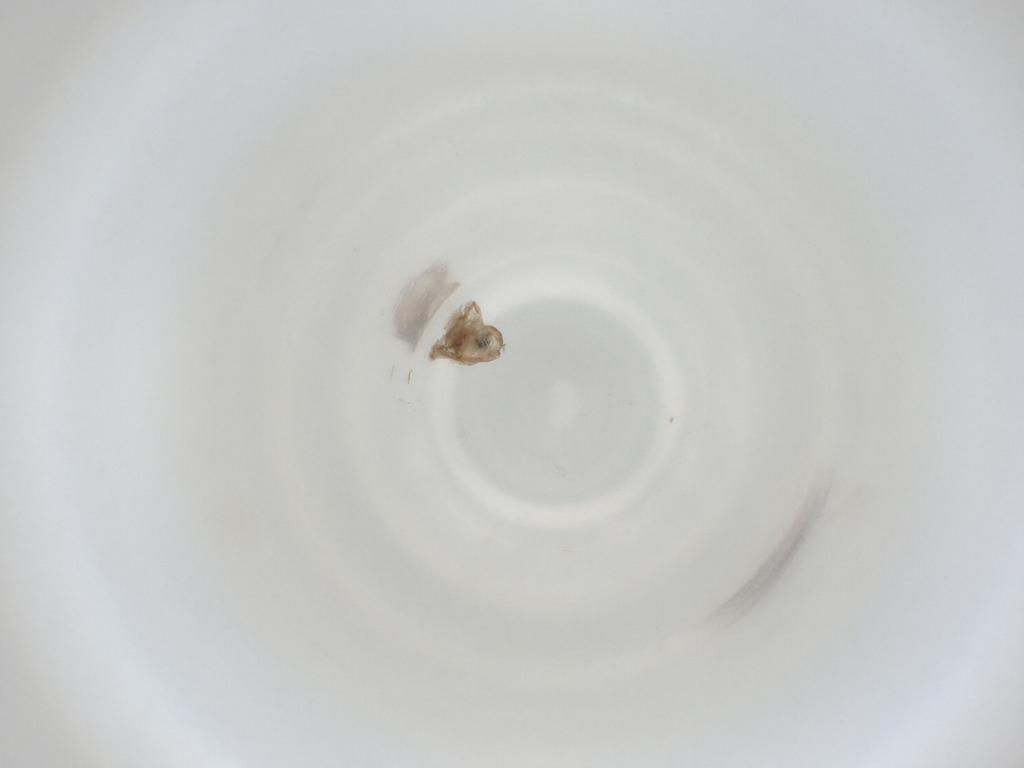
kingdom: Animalia
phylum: Arthropoda
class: Insecta
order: Diptera
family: Cecidomyiidae
